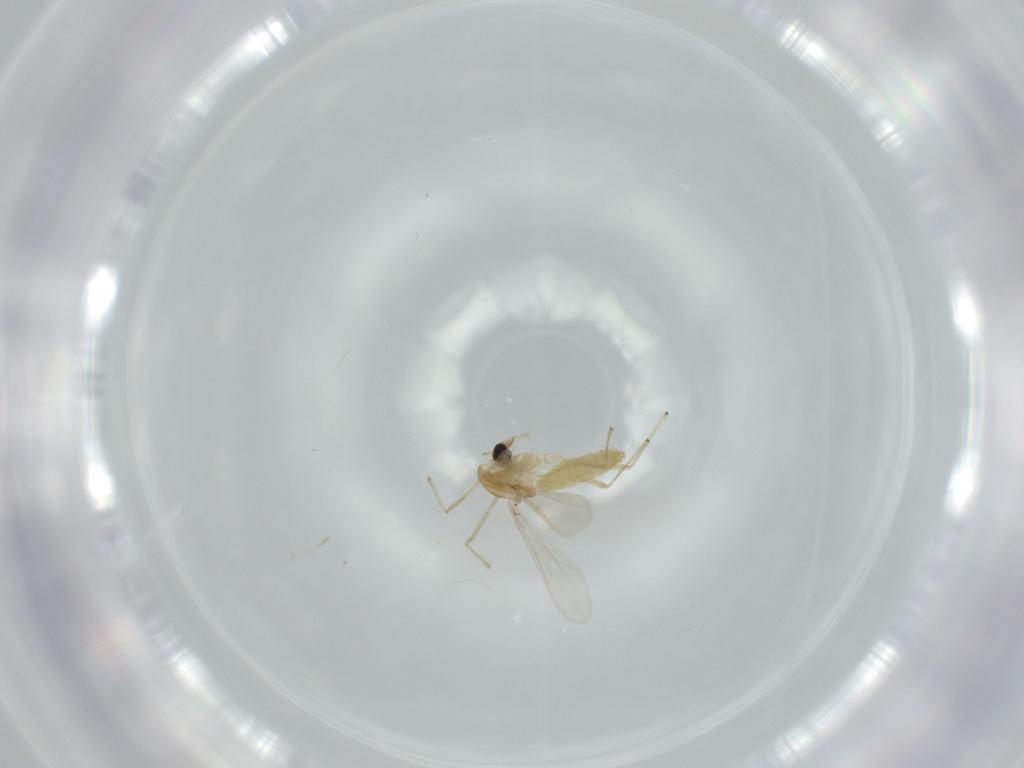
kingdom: Animalia
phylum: Arthropoda
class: Insecta
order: Diptera
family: Chironomidae
